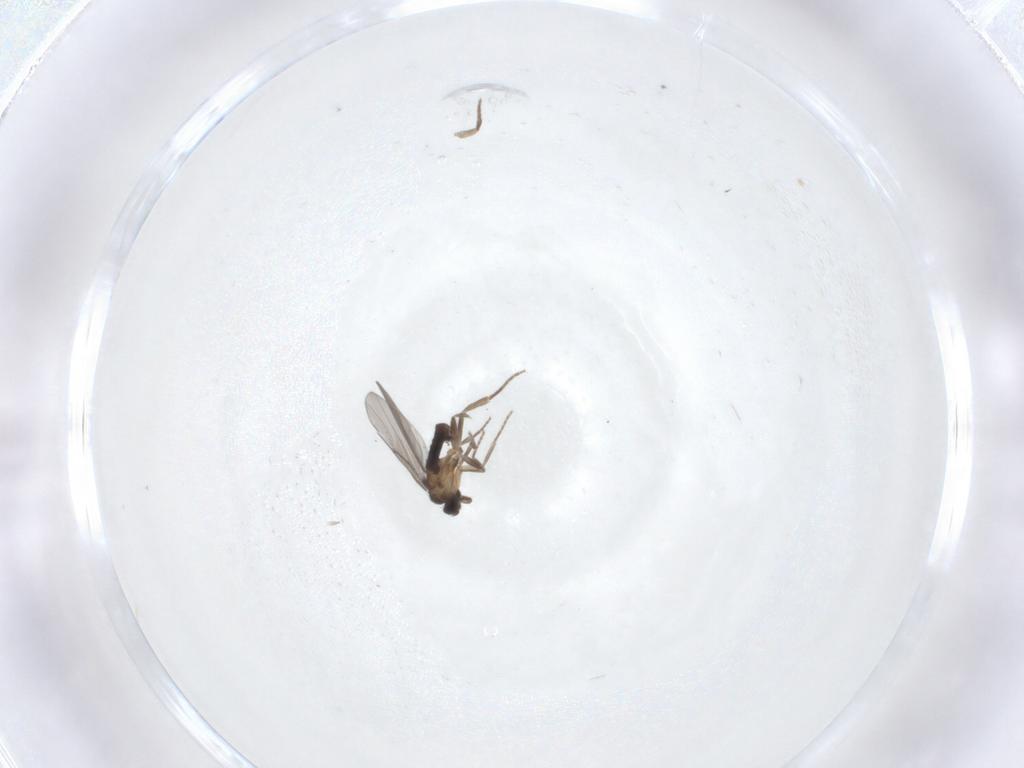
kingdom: Animalia
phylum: Arthropoda
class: Insecta
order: Diptera
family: Phoridae
